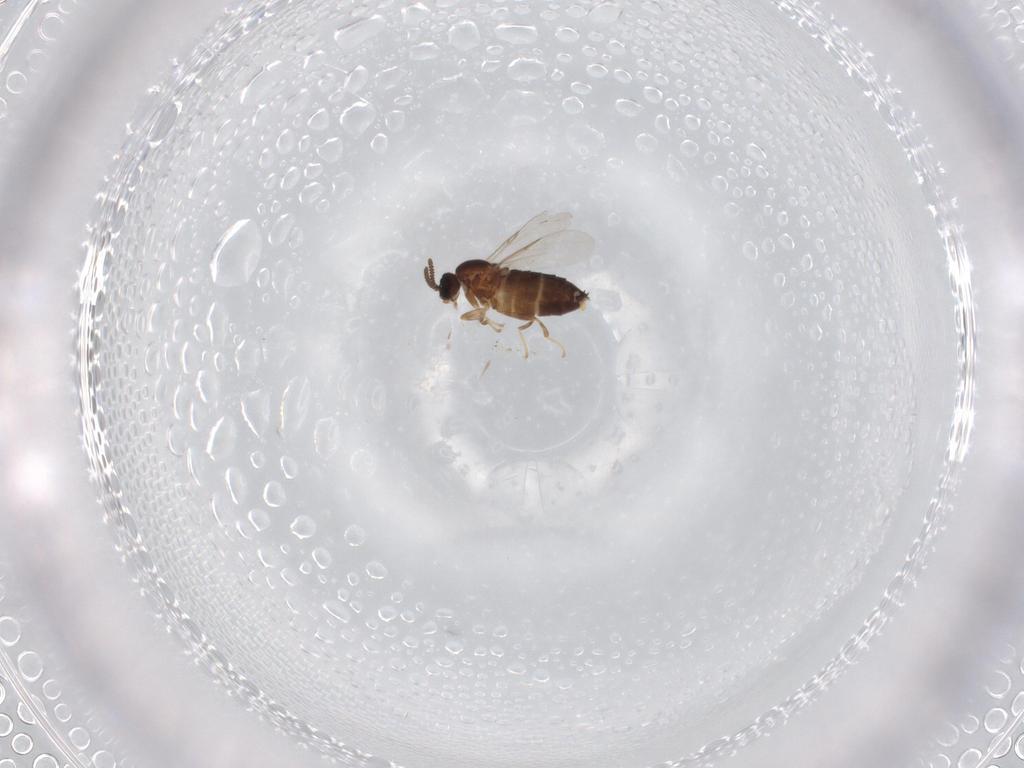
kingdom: Animalia
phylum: Arthropoda
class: Insecta
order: Diptera
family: Scatopsidae
